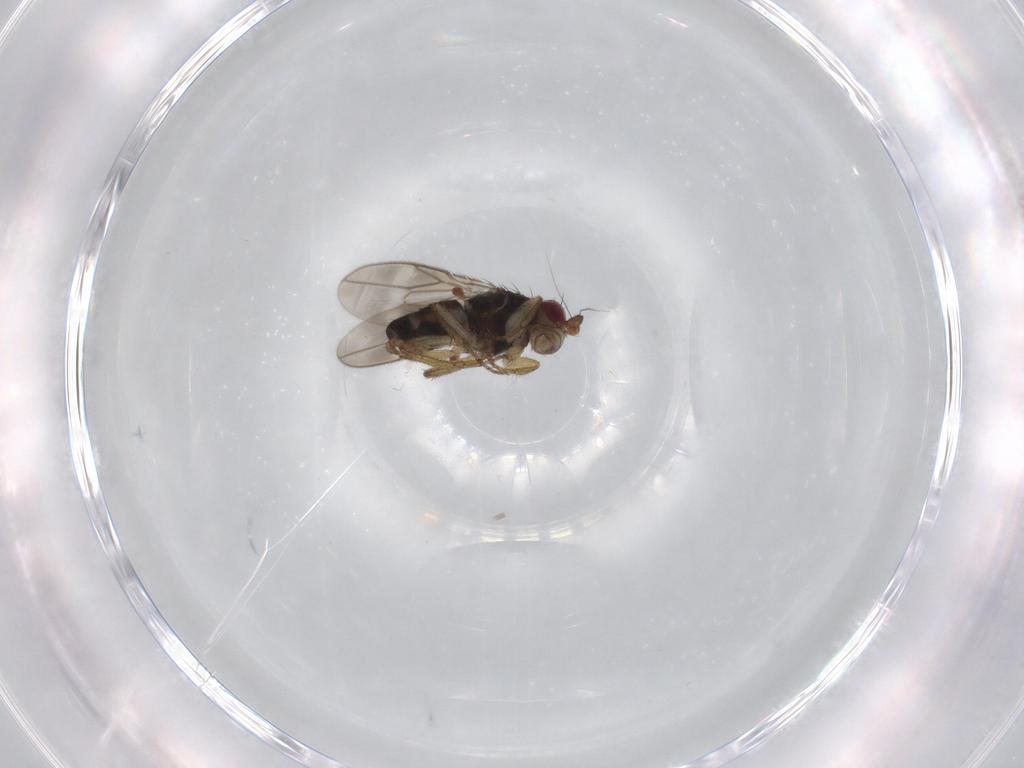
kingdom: Animalia
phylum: Arthropoda
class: Insecta
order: Diptera
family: Sphaeroceridae
